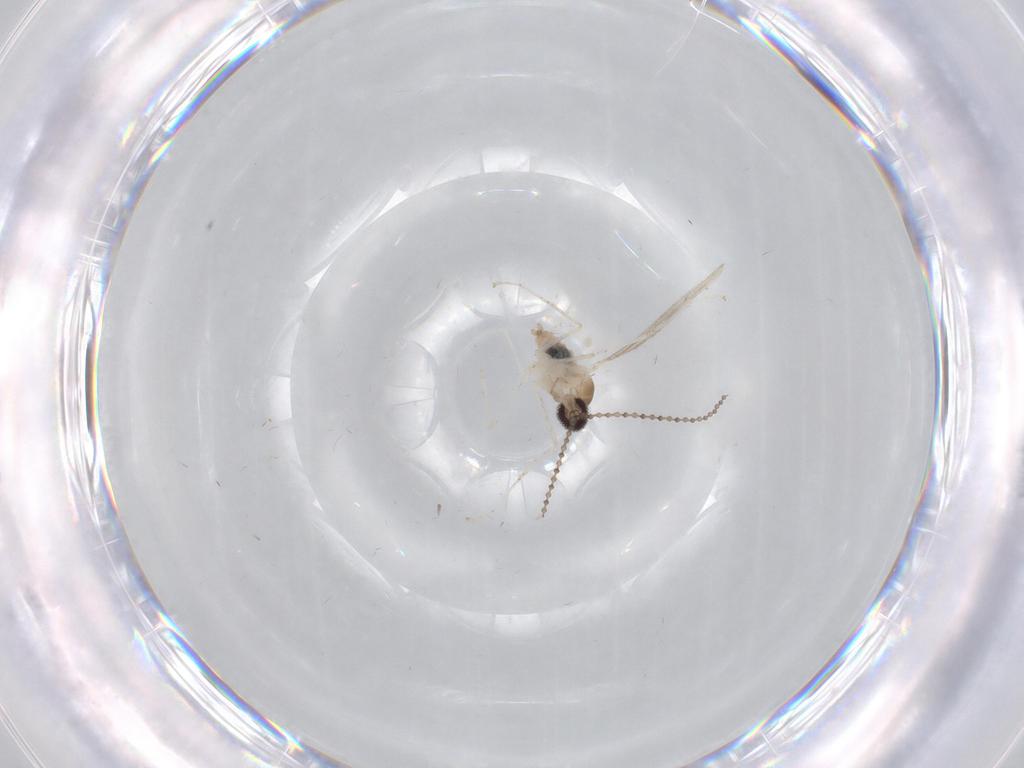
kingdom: Animalia
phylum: Arthropoda
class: Insecta
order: Diptera
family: Cecidomyiidae
